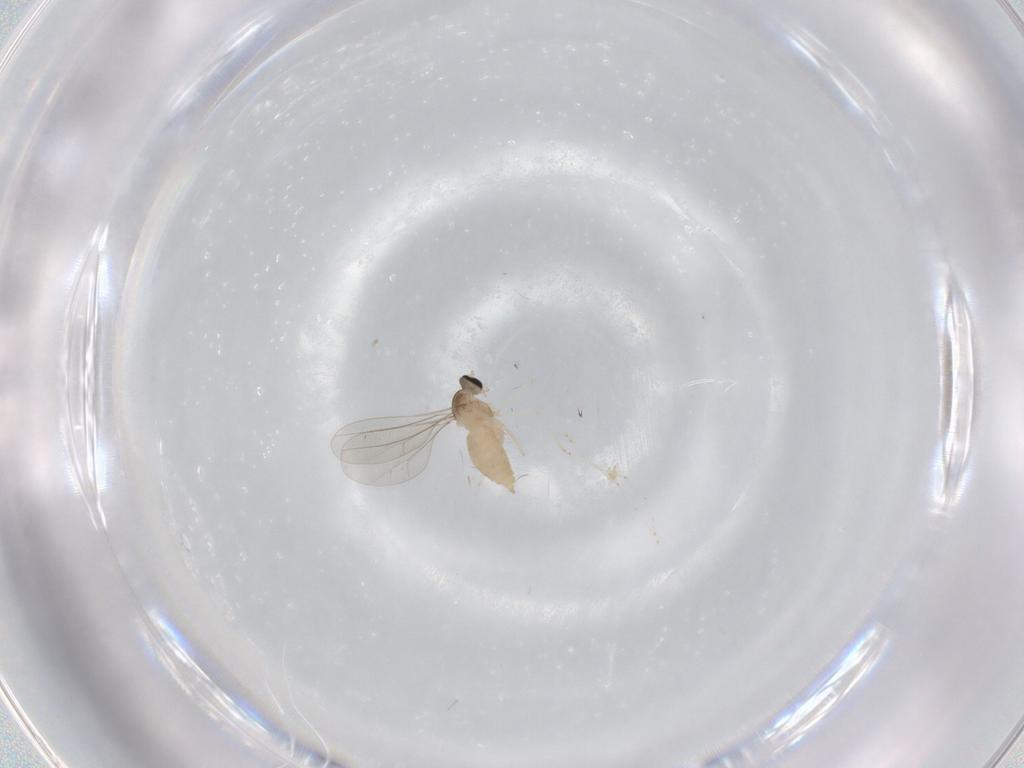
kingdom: Animalia
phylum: Arthropoda
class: Insecta
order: Diptera
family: Cecidomyiidae
